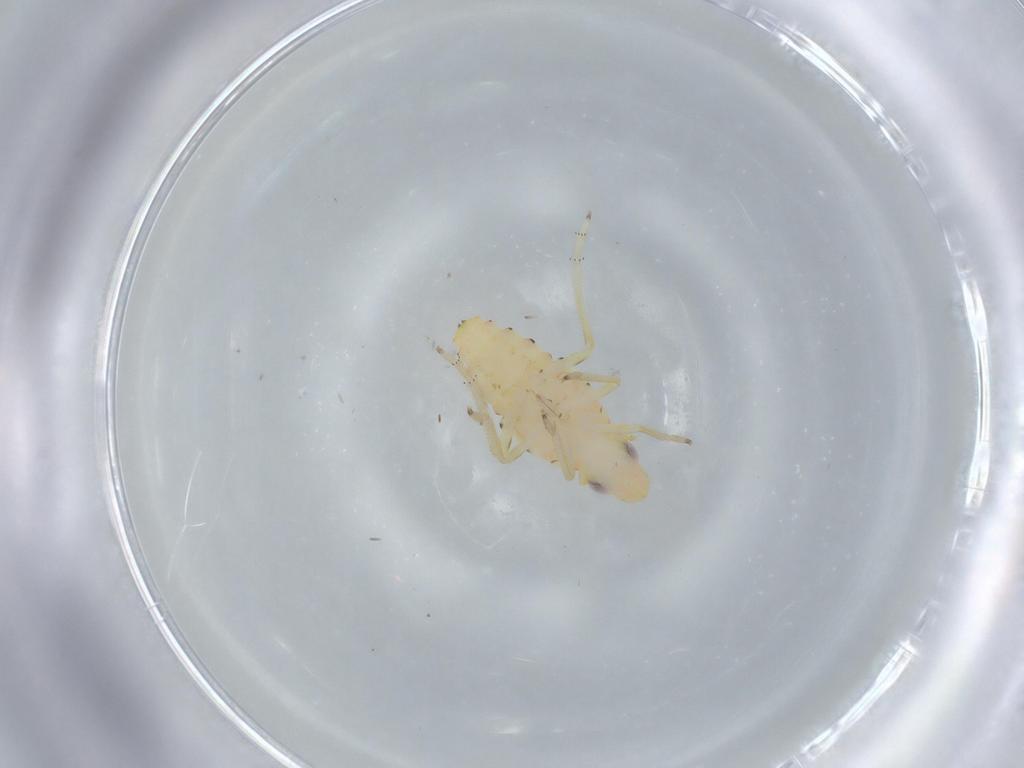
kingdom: Animalia
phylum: Arthropoda
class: Insecta
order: Hemiptera
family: Tropiduchidae
